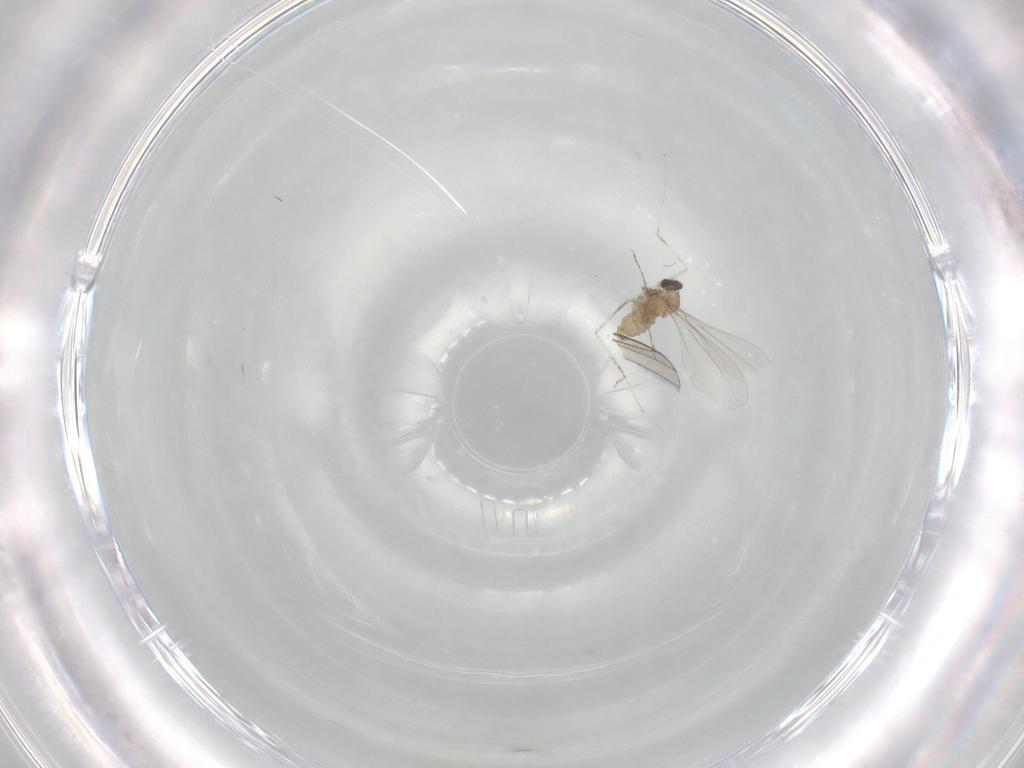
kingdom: Animalia
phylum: Arthropoda
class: Insecta
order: Diptera
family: Cecidomyiidae
